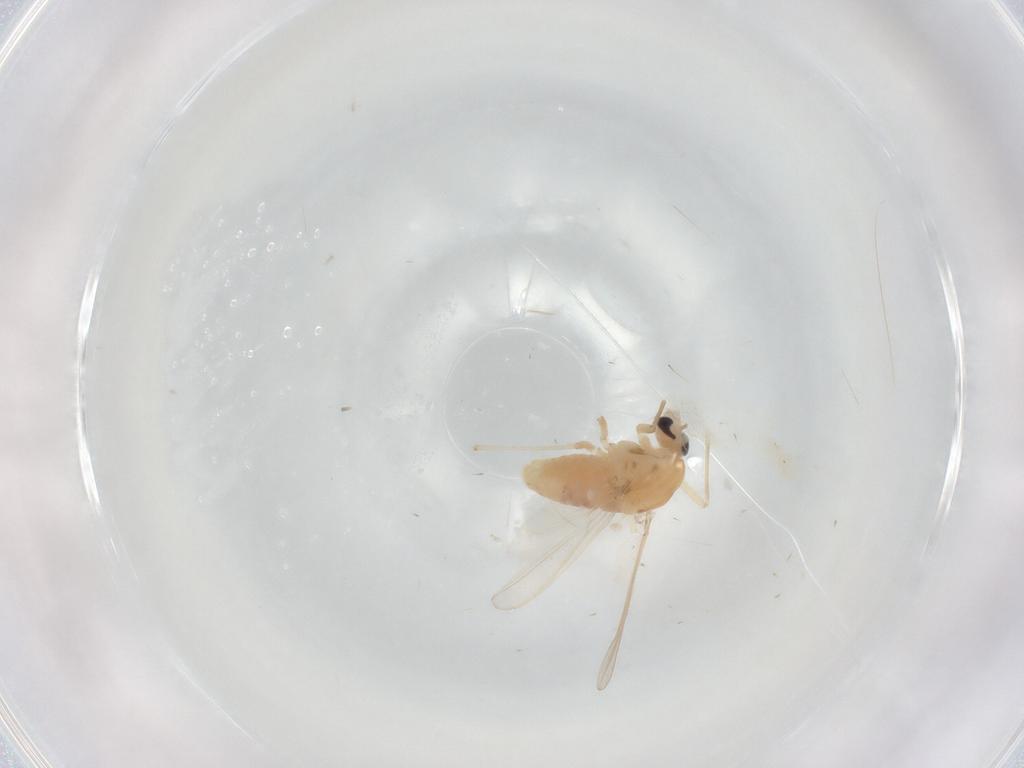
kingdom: Animalia
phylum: Arthropoda
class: Insecta
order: Diptera
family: Chironomidae
